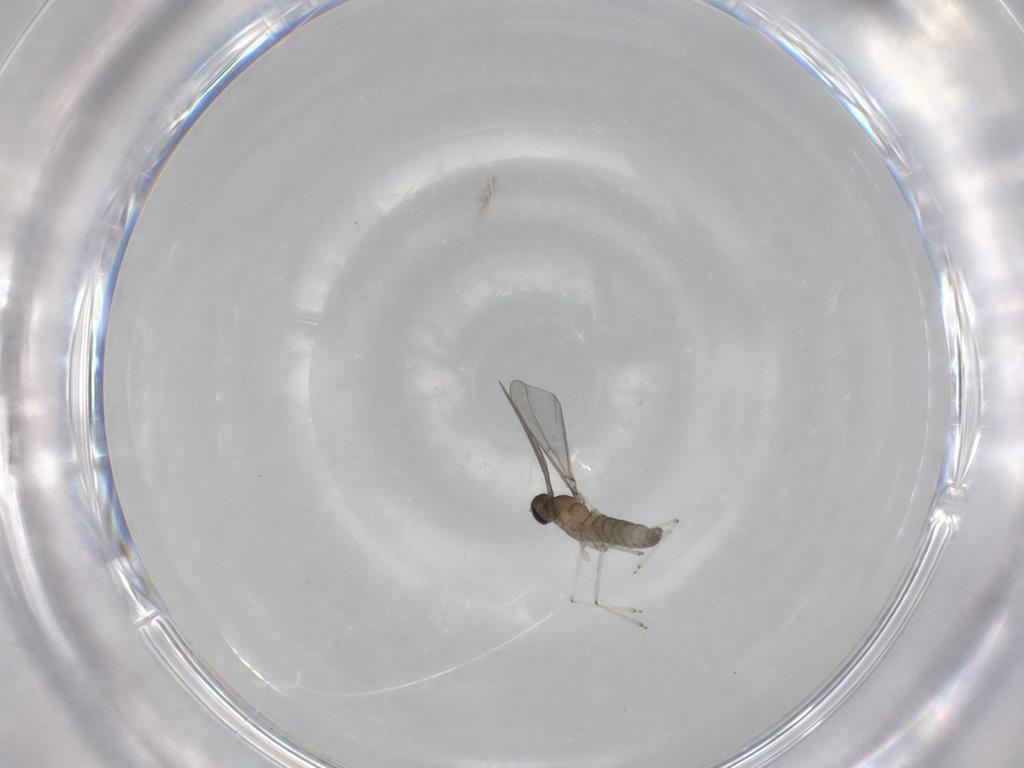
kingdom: Animalia
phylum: Arthropoda
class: Insecta
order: Diptera
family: Cecidomyiidae
